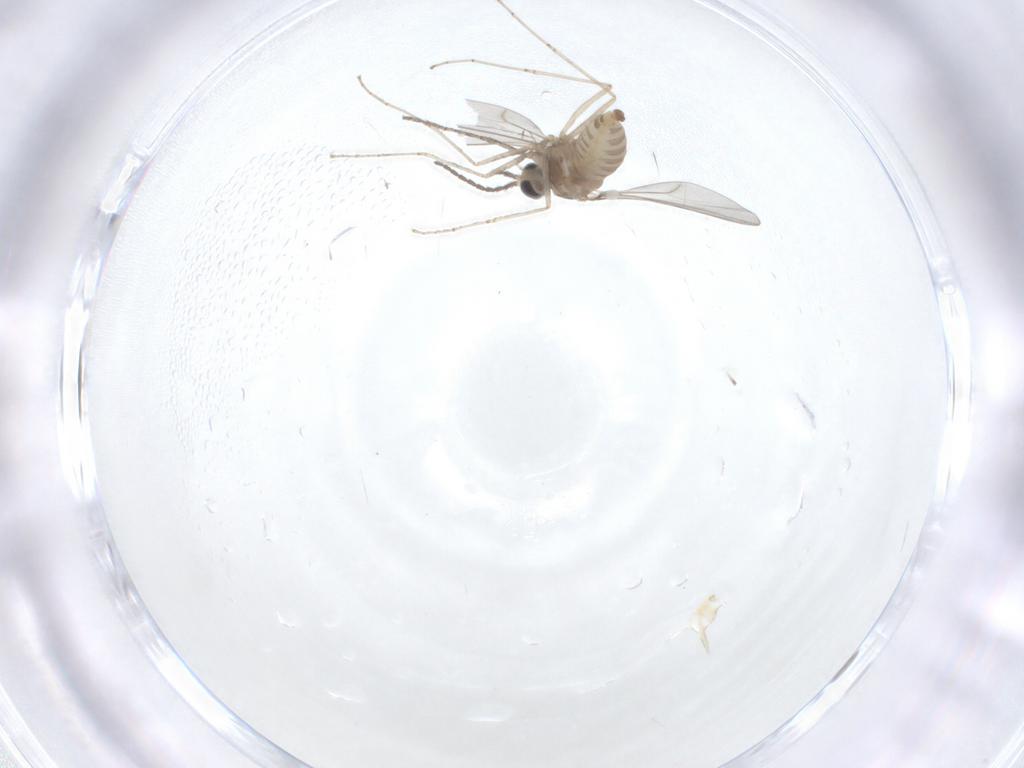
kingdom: Animalia
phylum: Arthropoda
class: Insecta
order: Diptera
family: Cecidomyiidae
